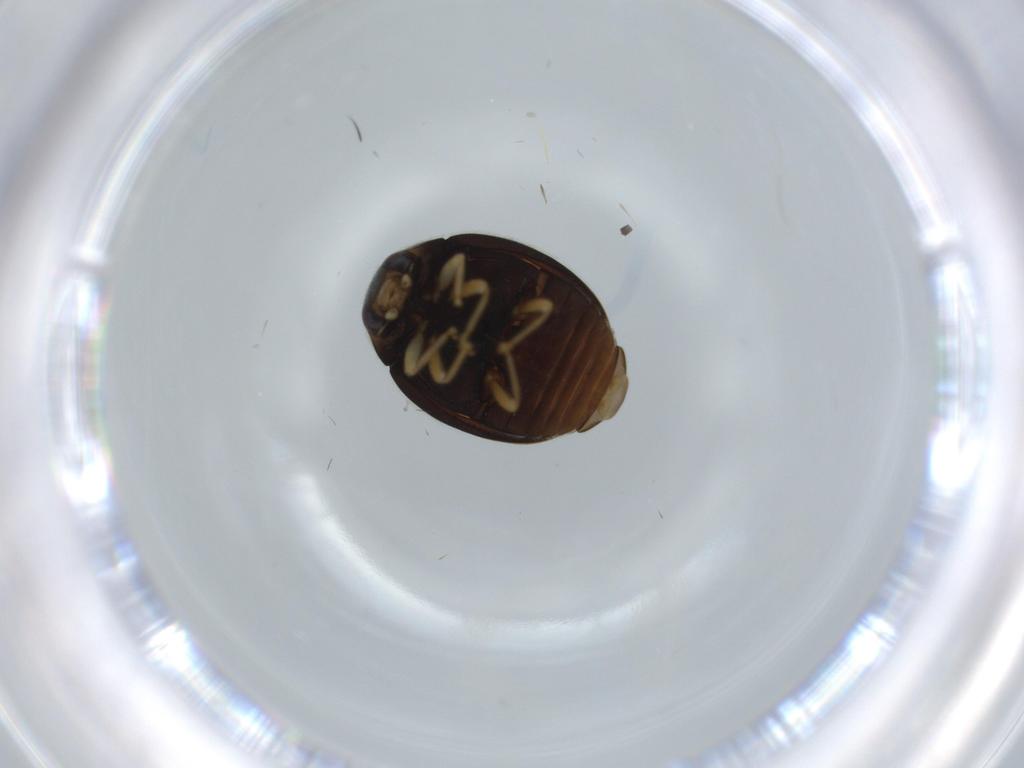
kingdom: Animalia
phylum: Arthropoda
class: Insecta
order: Coleoptera
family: Coccinellidae
